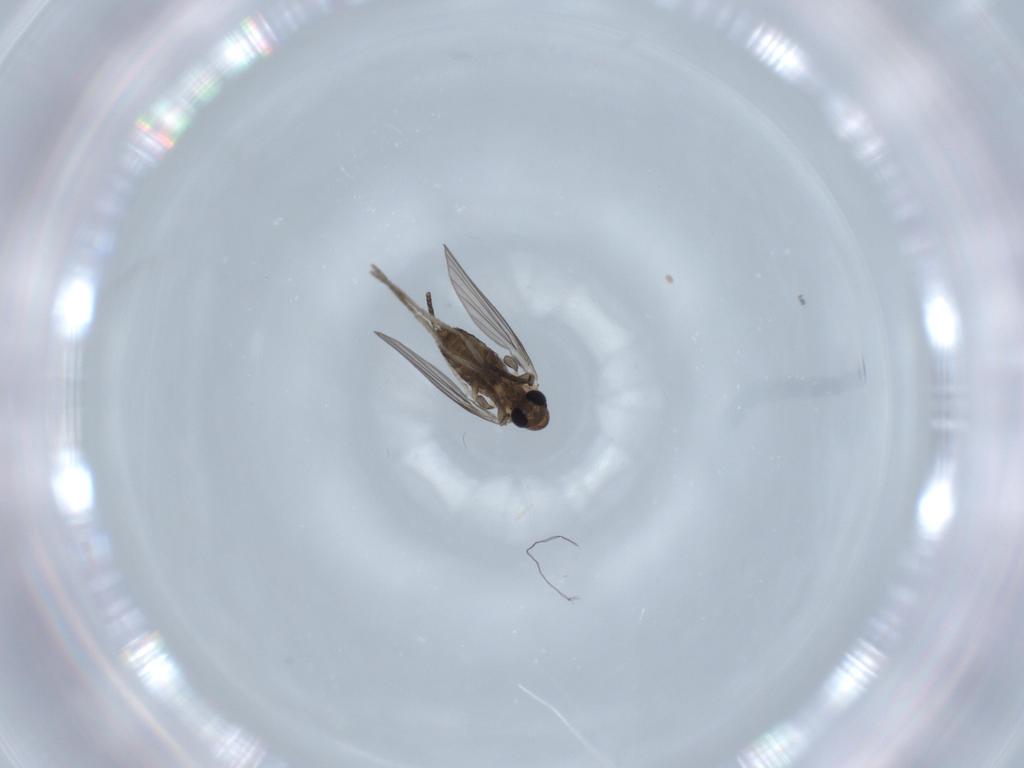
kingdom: Animalia
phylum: Arthropoda
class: Insecta
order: Diptera
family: Psychodidae
